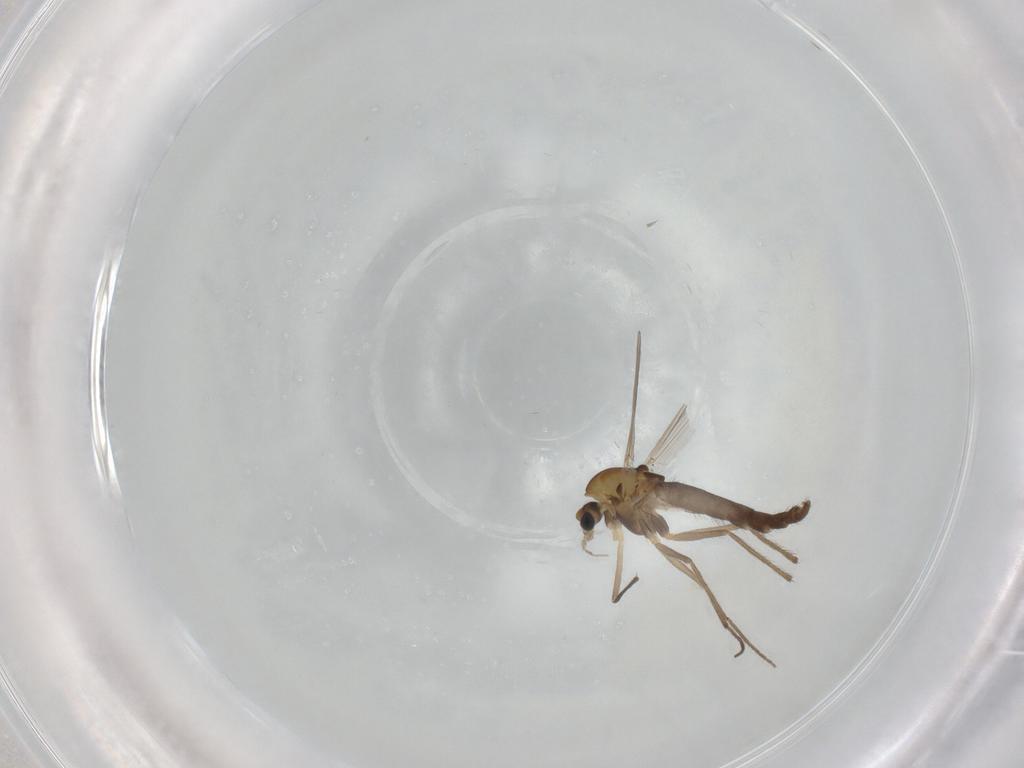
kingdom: Animalia
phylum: Arthropoda
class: Insecta
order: Diptera
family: Chironomidae
